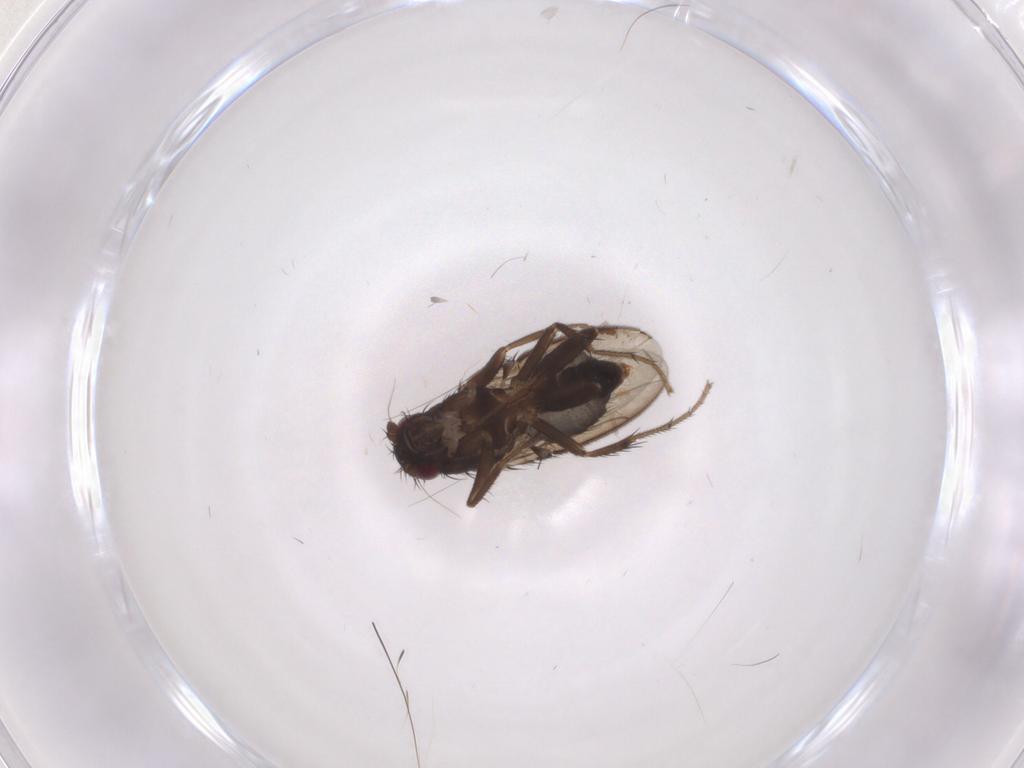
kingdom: Animalia
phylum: Arthropoda
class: Insecta
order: Diptera
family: Sphaeroceridae
